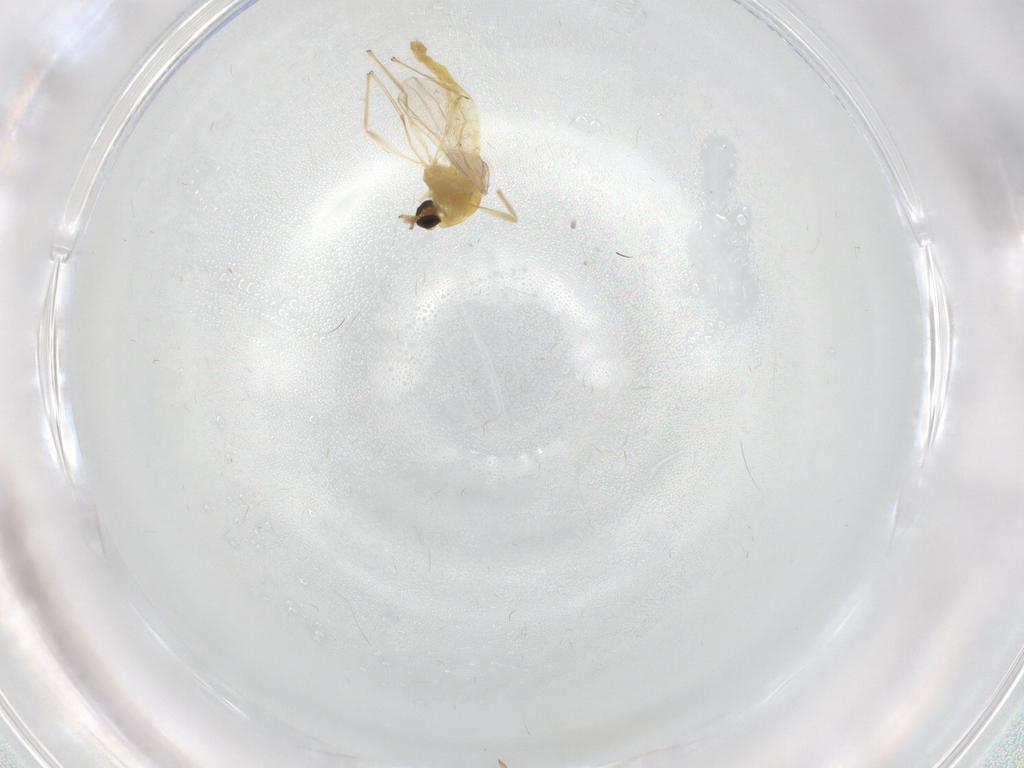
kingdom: Animalia
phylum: Arthropoda
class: Insecta
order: Diptera
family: Chironomidae
